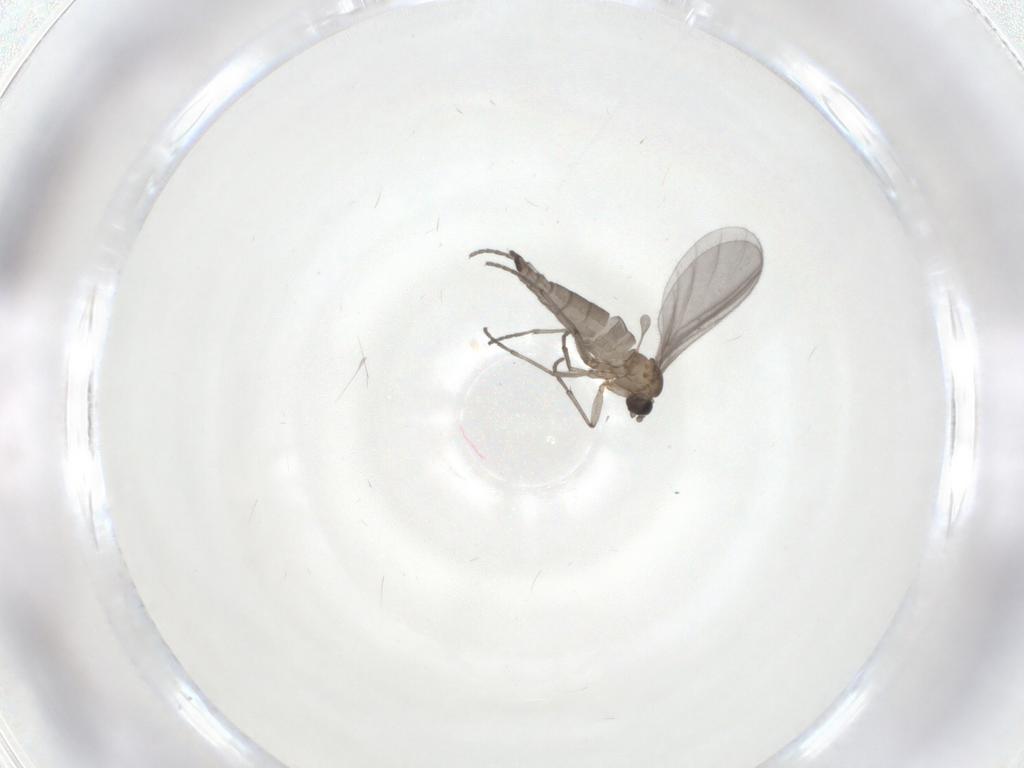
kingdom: Animalia
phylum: Arthropoda
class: Insecta
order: Diptera
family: Sciaridae
